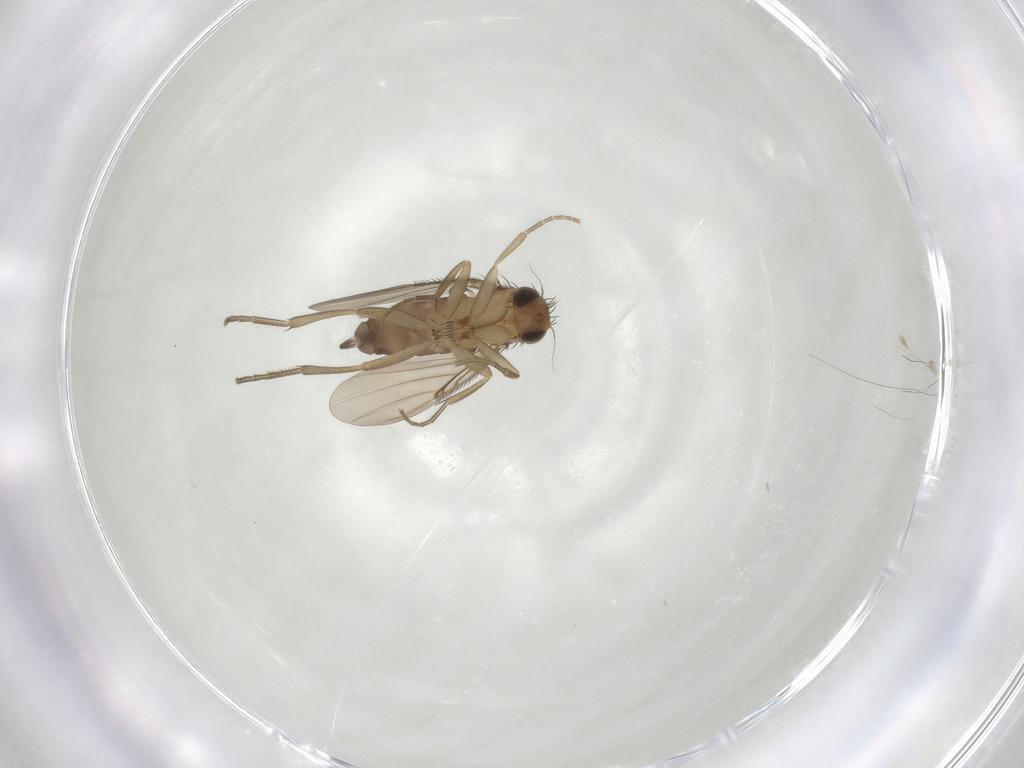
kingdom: Animalia
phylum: Arthropoda
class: Insecta
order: Diptera
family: Phoridae
